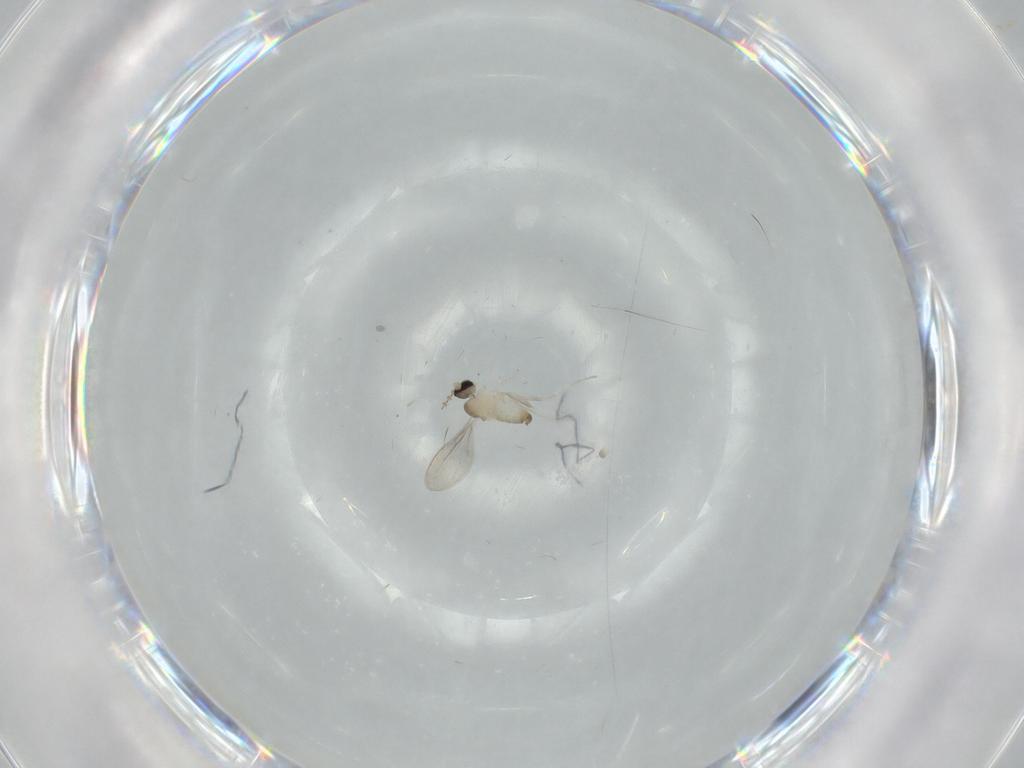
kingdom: Animalia
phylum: Arthropoda
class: Insecta
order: Diptera
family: Cecidomyiidae
